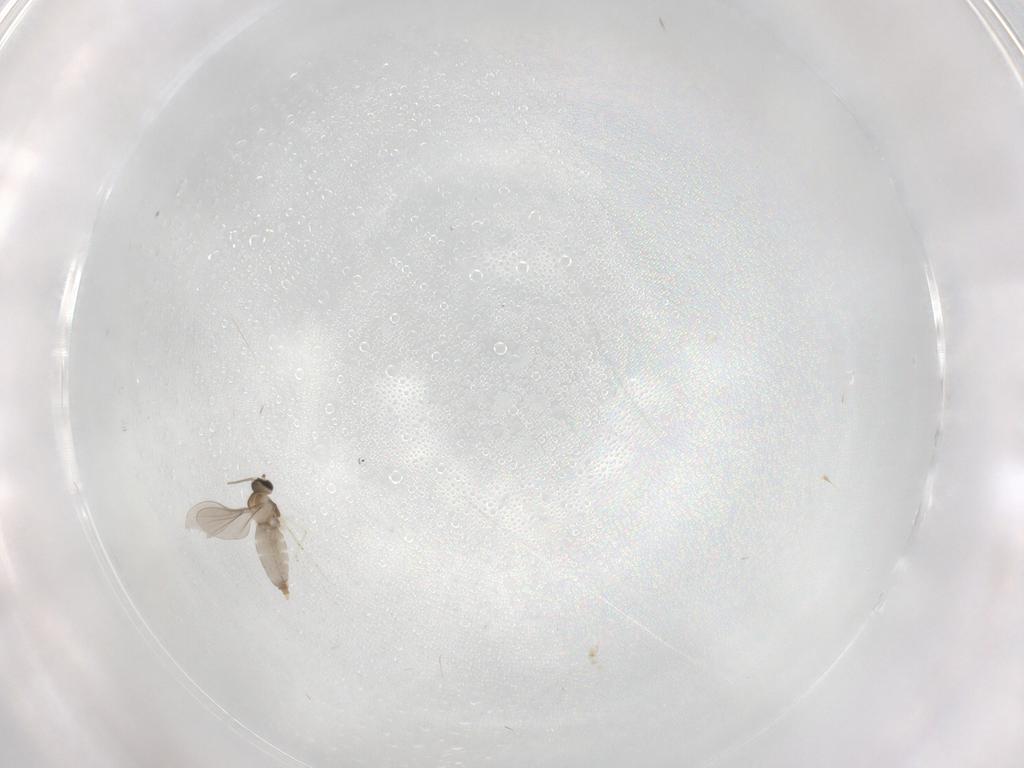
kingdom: Animalia
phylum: Arthropoda
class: Insecta
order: Diptera
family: Chironomidae
